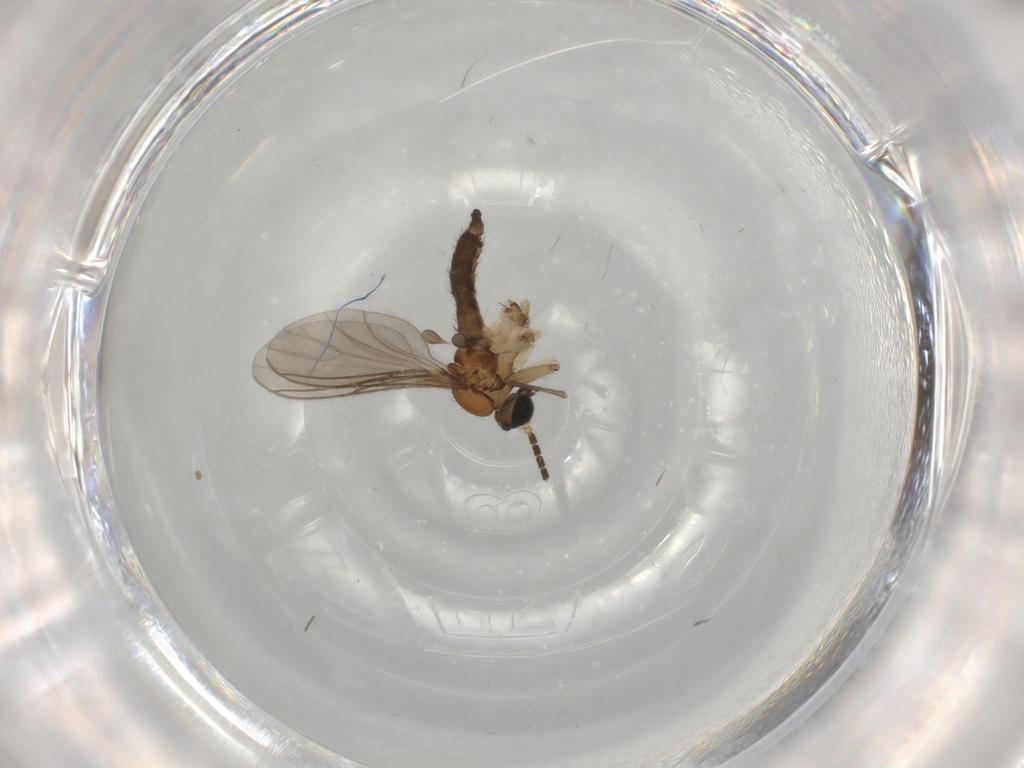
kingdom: Animalia
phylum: Arthropoda
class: Insecta
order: Diptera
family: Sciaridae
